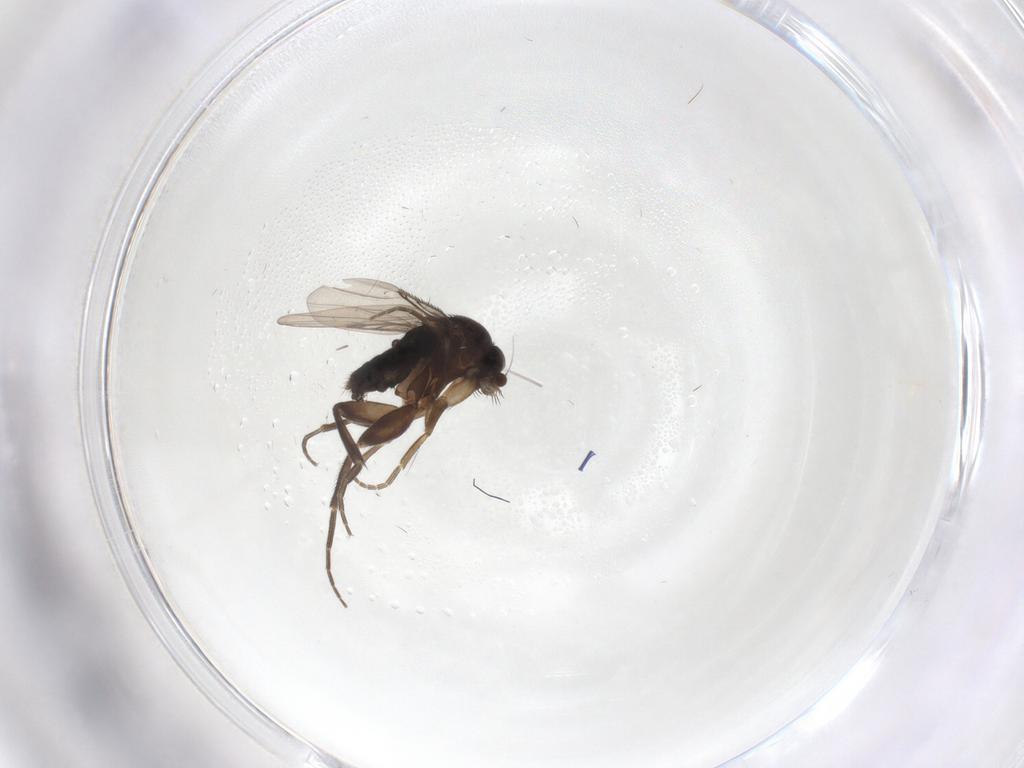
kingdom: Animalia
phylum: Arthropoda
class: Insecta
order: Diptera
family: Phoridae
